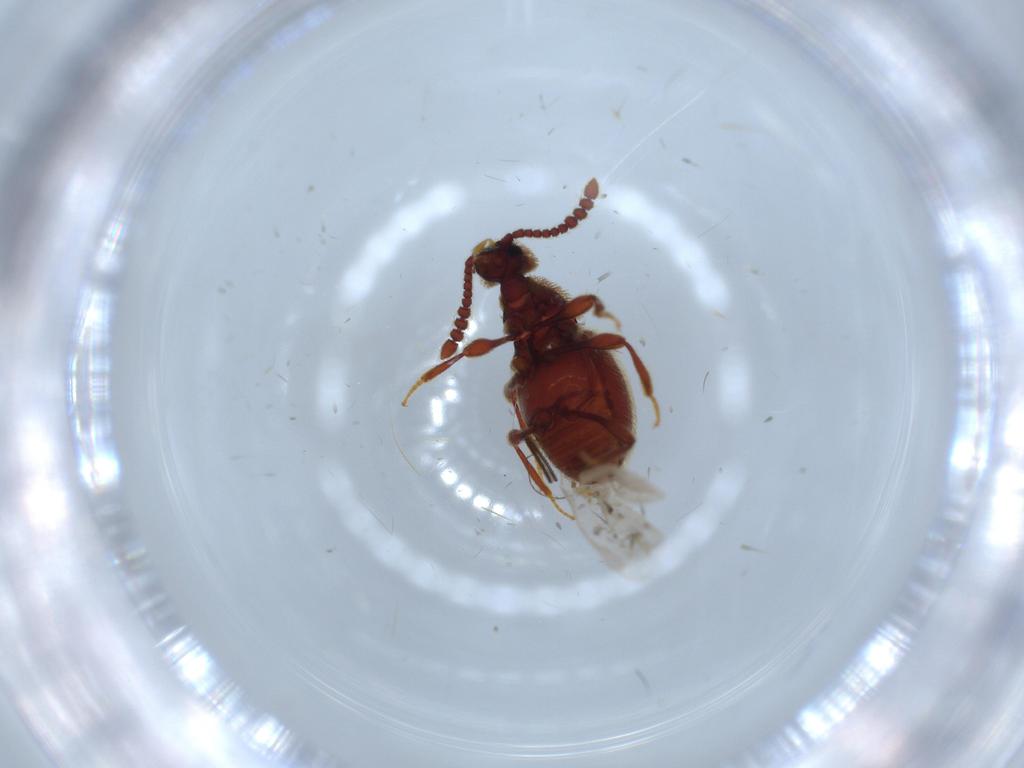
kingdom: Animalia
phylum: Arthropoda
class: Insecta
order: Coleoptera
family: Staphylinidae
